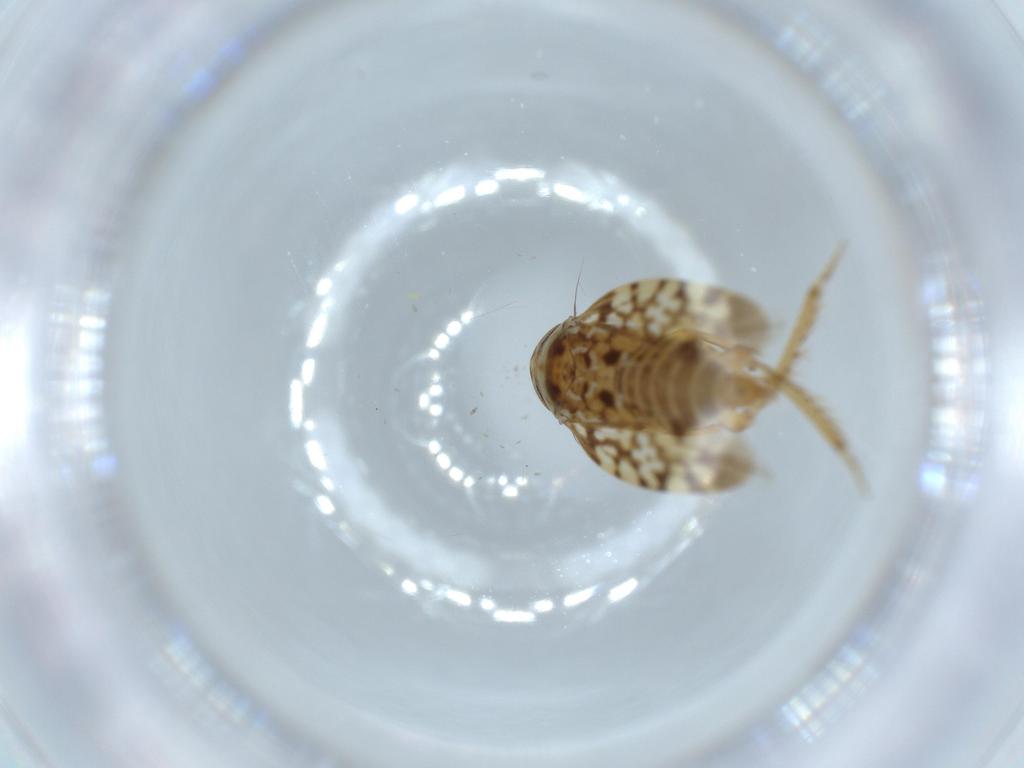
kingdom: Animalia
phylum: Arthropoda
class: Insecta
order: Hemiptera
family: Cicadellidae
